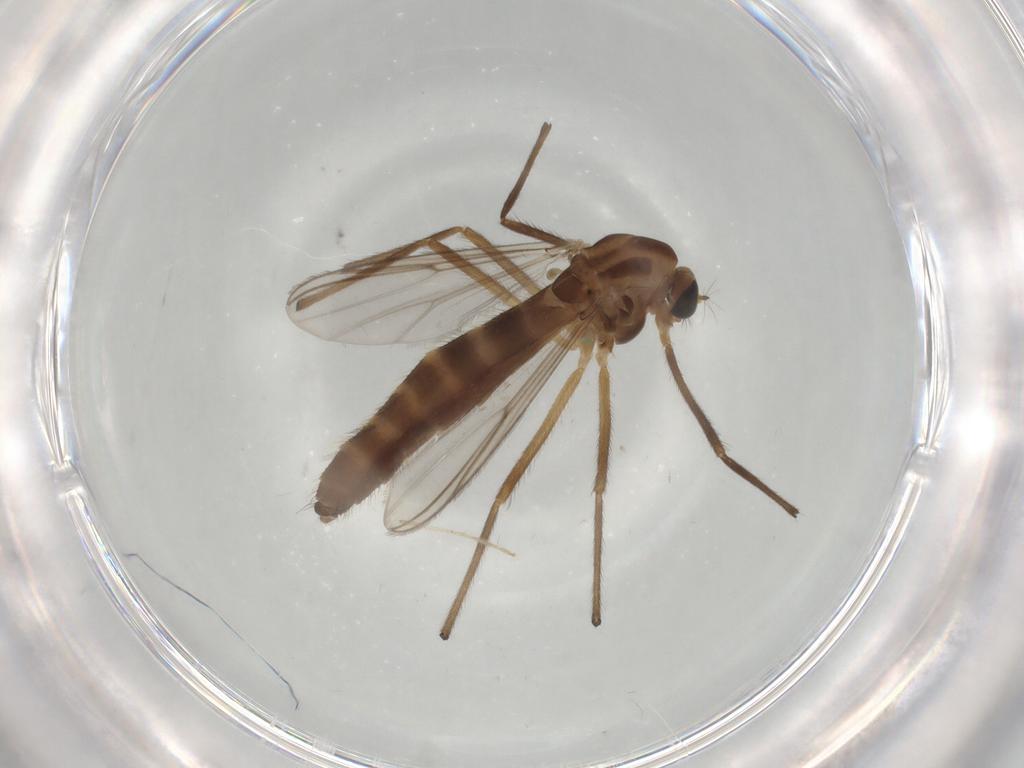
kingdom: Animalia
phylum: Arthropoda
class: Insecta
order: Diptera
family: Chironomidae
